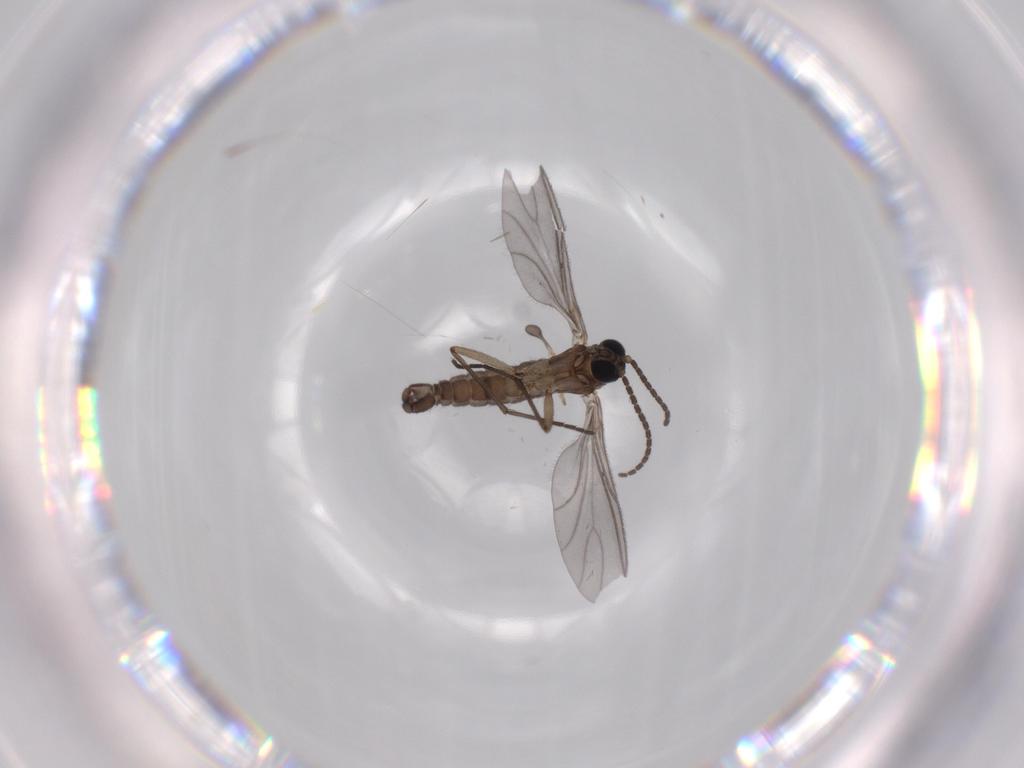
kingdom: Animalia
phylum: Arthropoda
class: Insecta
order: Diptera
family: Sciaridae
